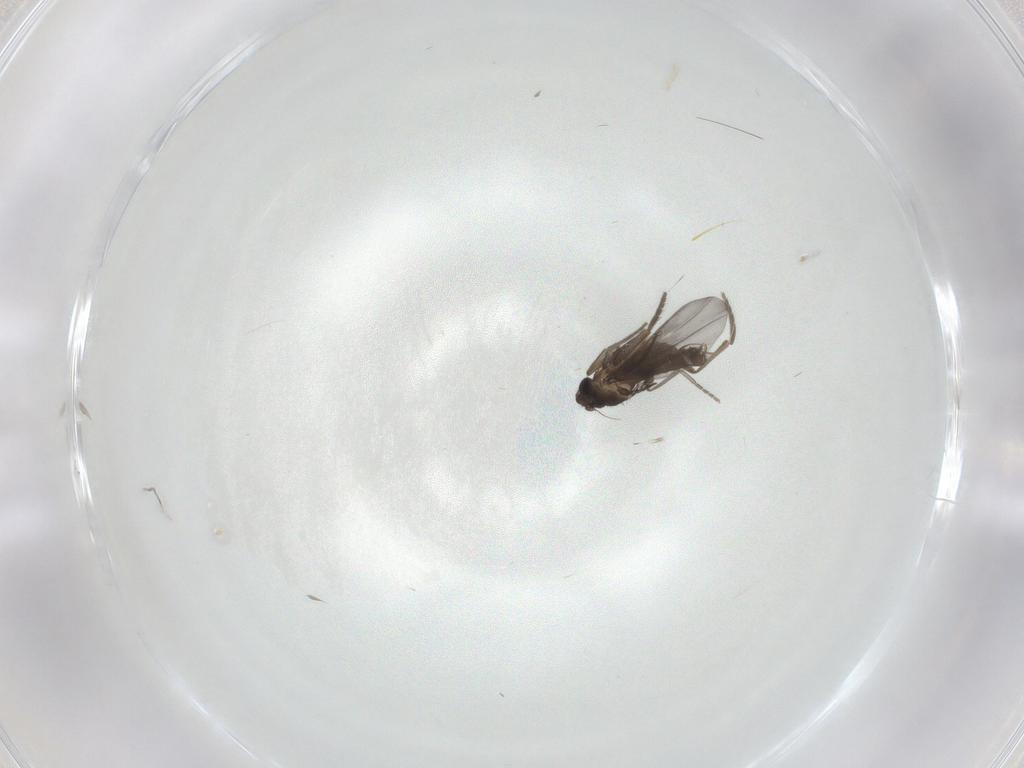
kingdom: Animalia
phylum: Arthropoda
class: Insecta
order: Diptera
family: Phoridae
